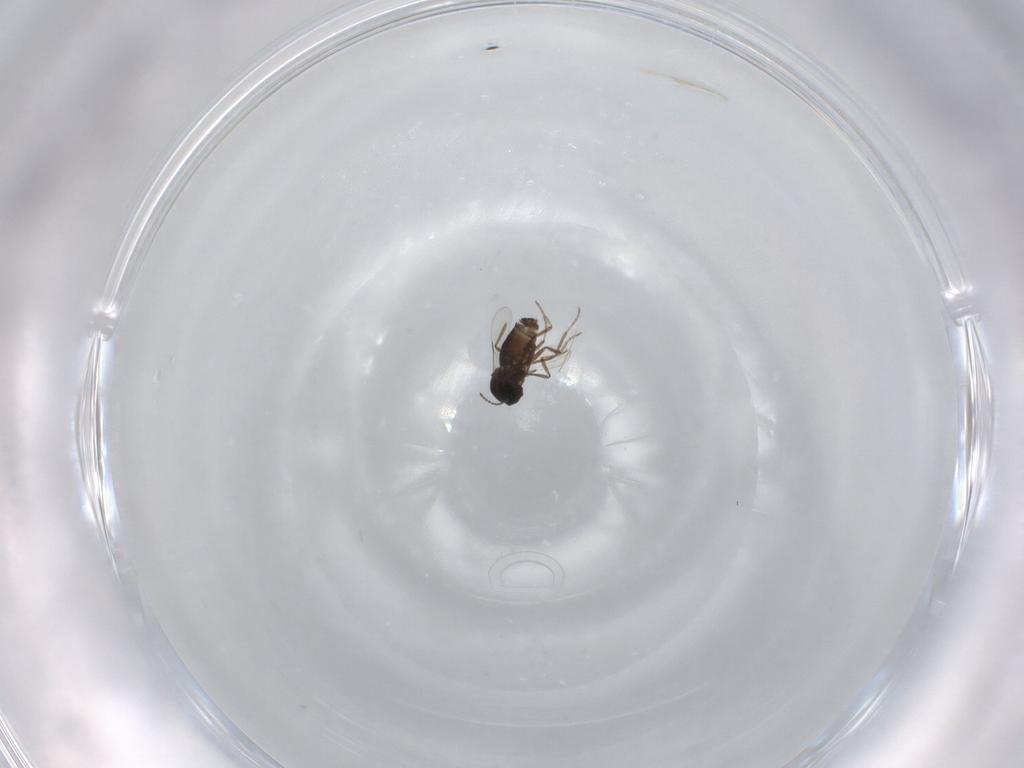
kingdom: Animalia
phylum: Arthropoda
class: Insecta
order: Diptera
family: Ceratopogonidae
